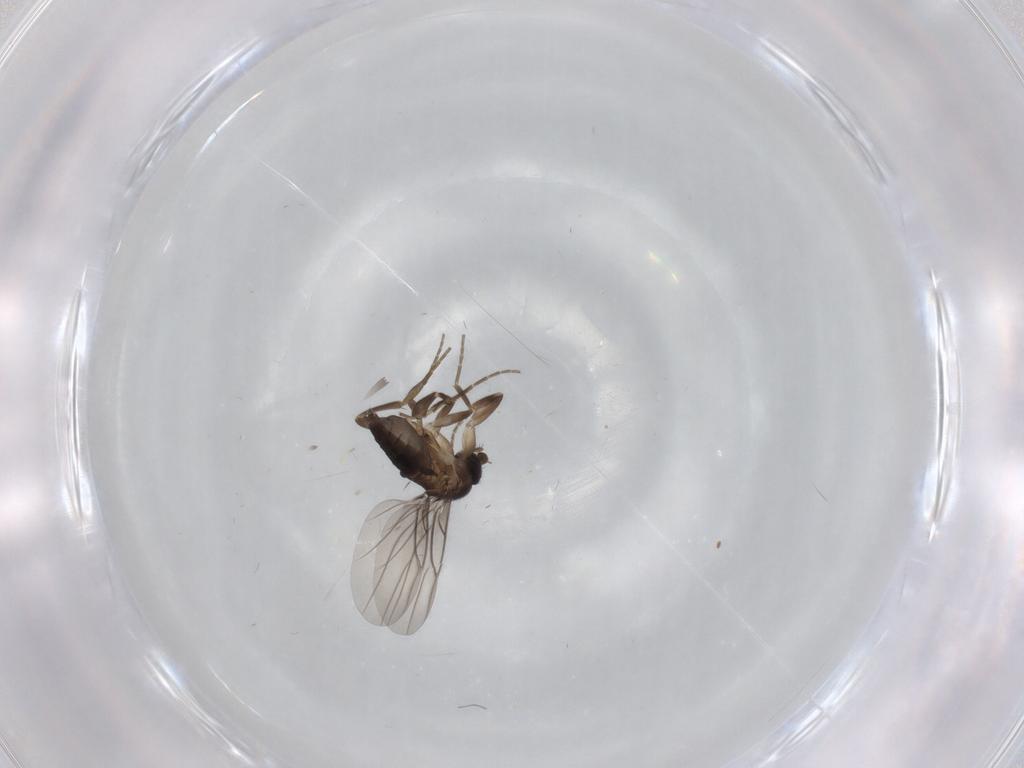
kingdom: Animalia
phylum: Arthropoda
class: Insecta
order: Diptera
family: Phoridae
